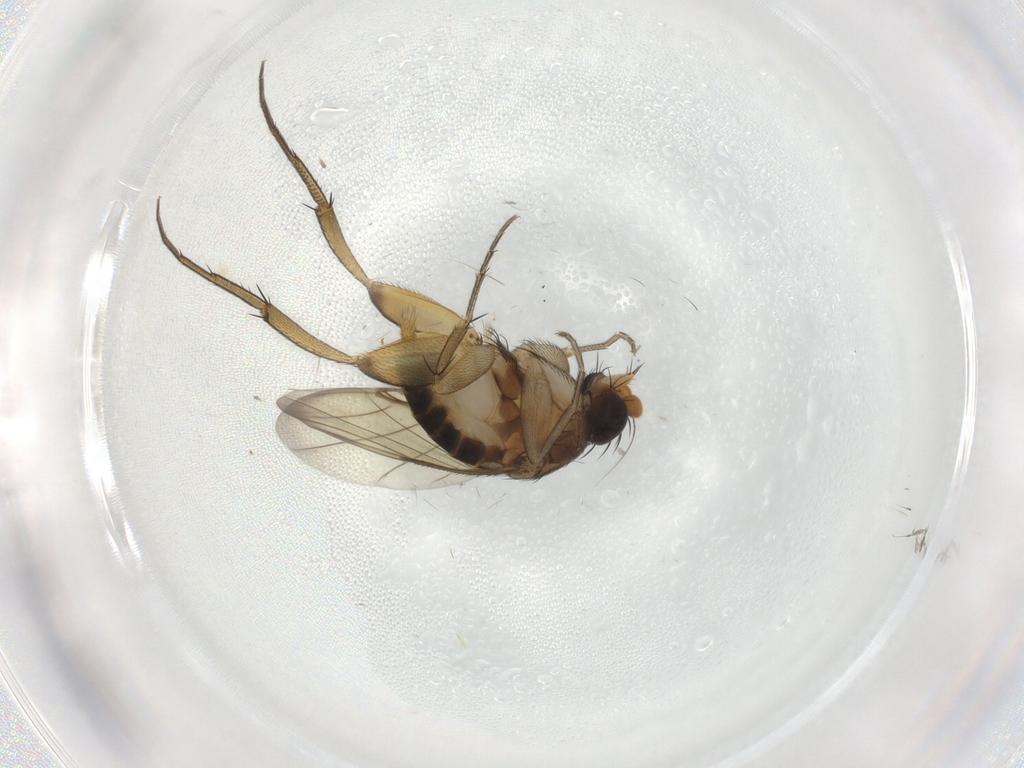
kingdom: Animalia
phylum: Arthropoda
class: Insecta
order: Diptera
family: Phoridae
